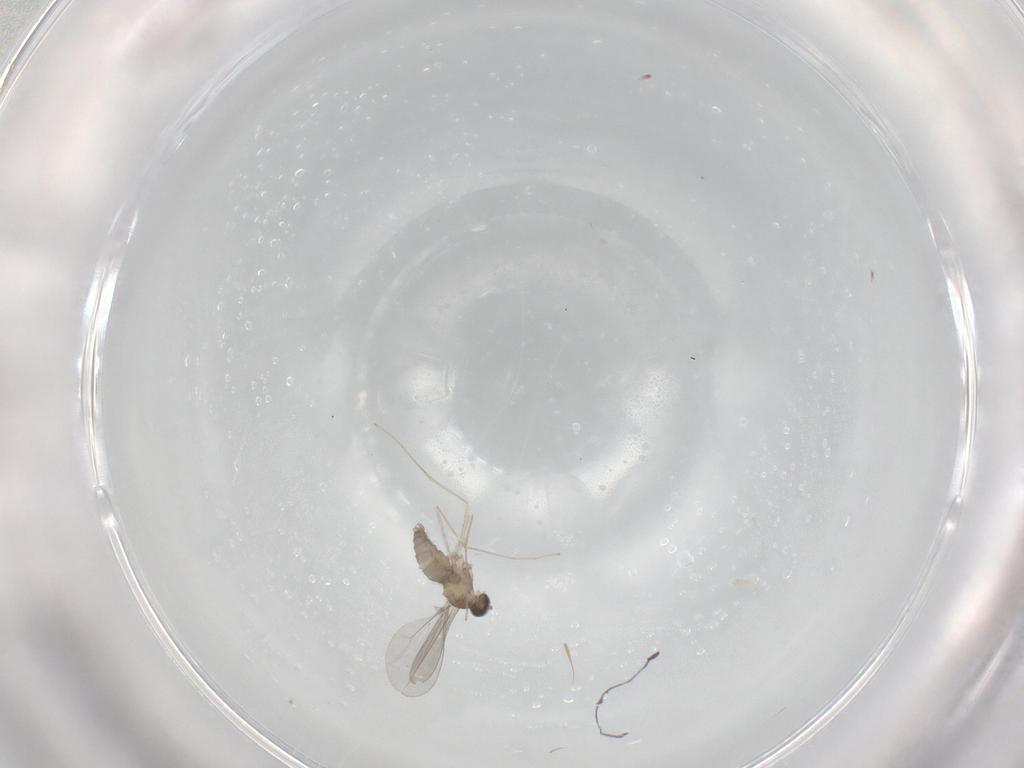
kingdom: Animalia
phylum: Arthropoda
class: Insecta
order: Diptera
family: Cecidomyiidae
